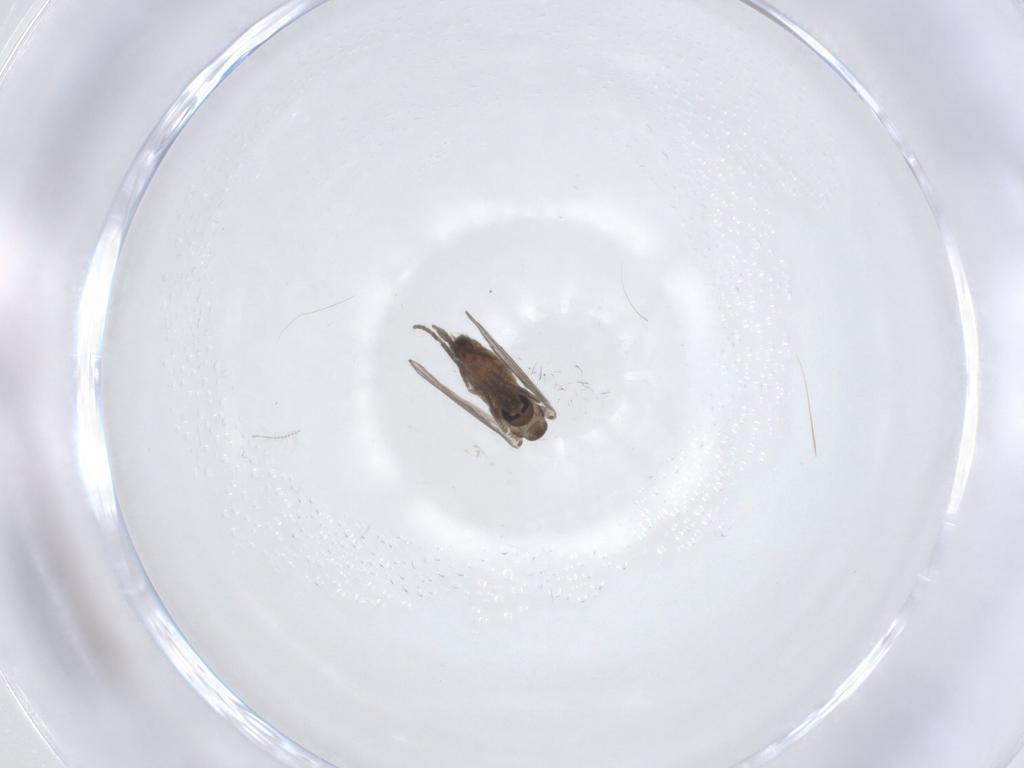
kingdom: Animalia
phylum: Arthropoda
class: Insecta
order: Diptera
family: Psychodidae
